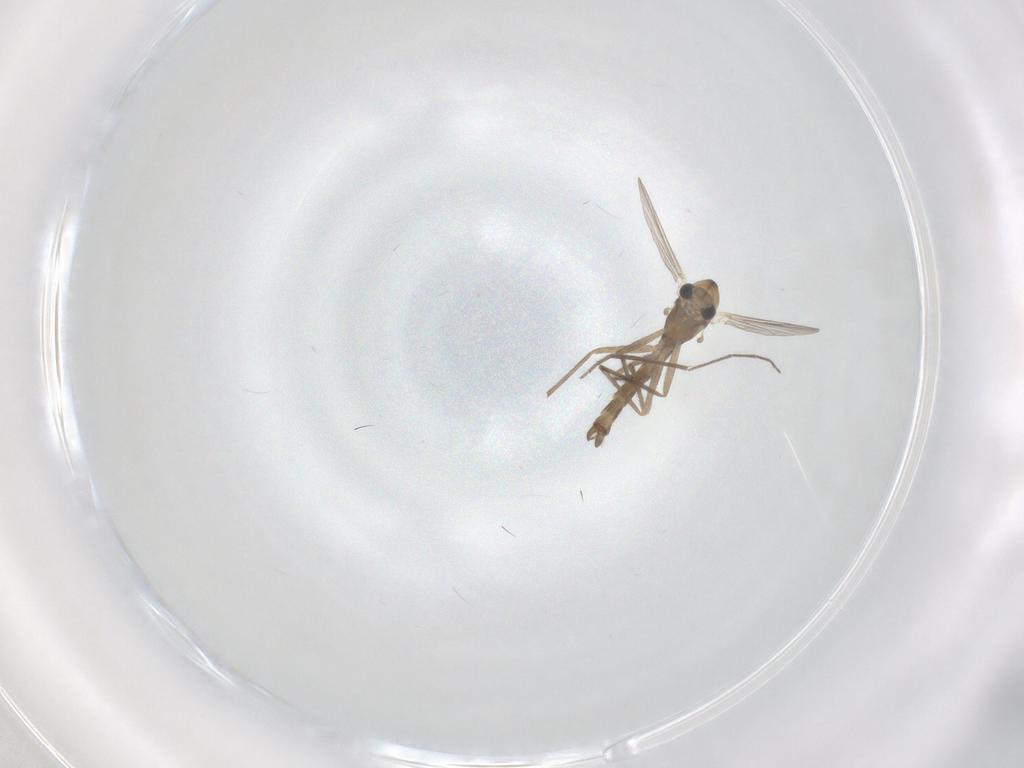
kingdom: Animalia
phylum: Arthropoda
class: Insecta
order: Diptera
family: Chironomidae
